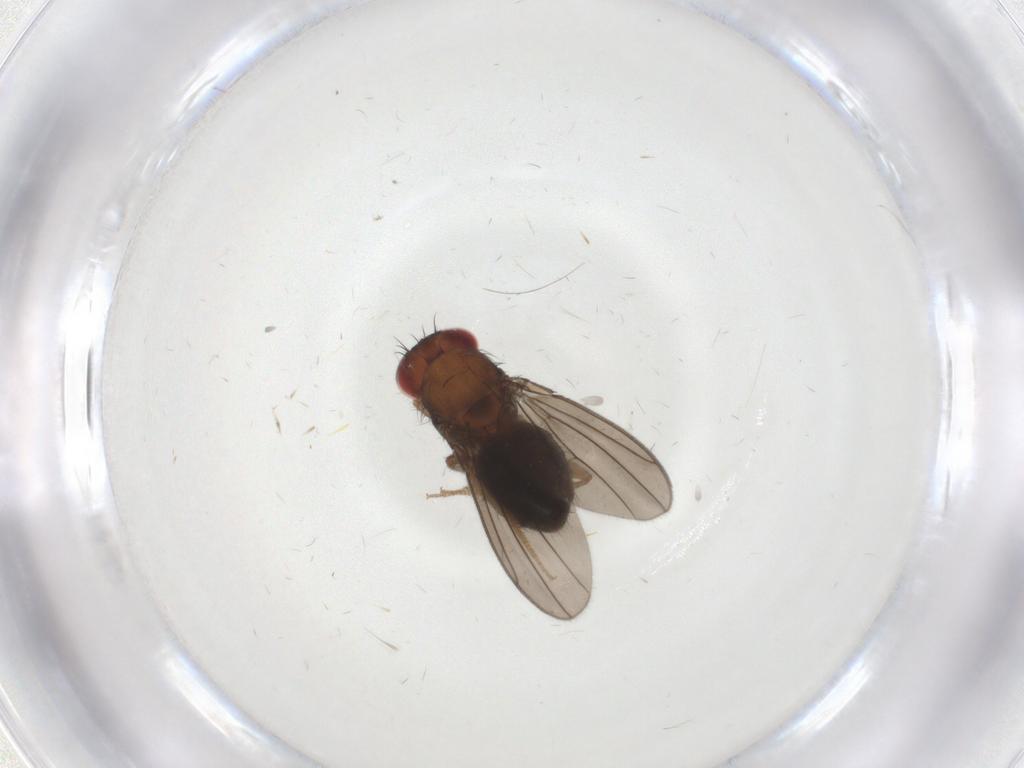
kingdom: Animalia
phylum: Arthropoda
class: Insecta
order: Diptera
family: Drosophilidae
